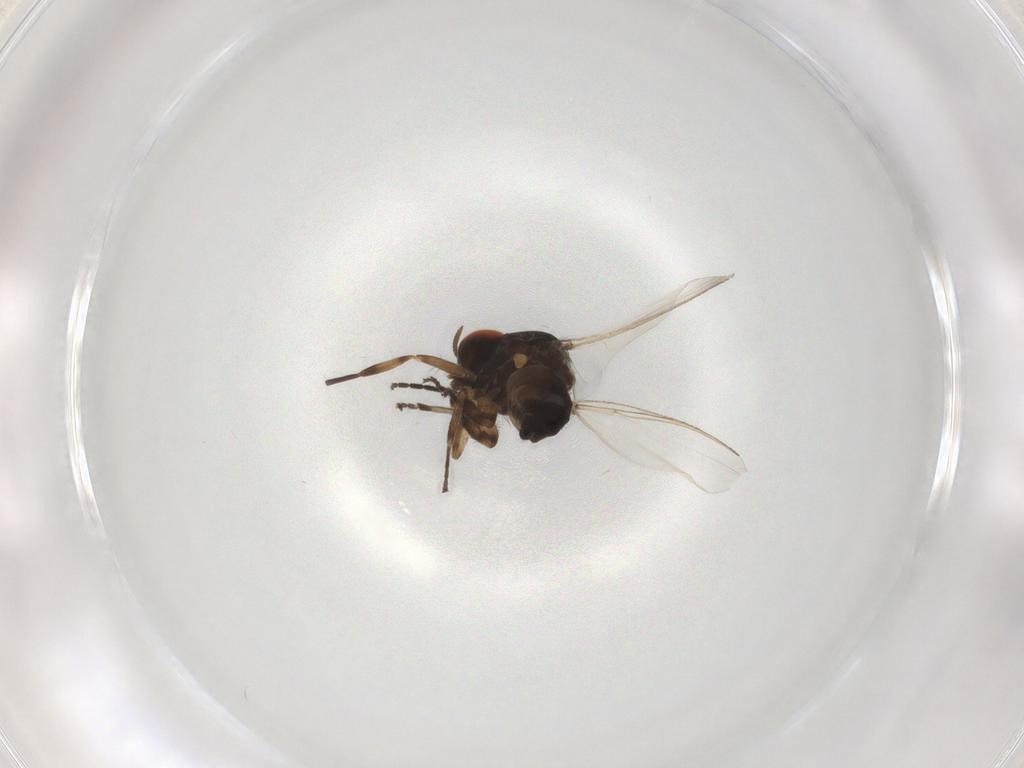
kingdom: Animalia
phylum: Arthropoda
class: Insecta
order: Diptera
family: Simuliidae
